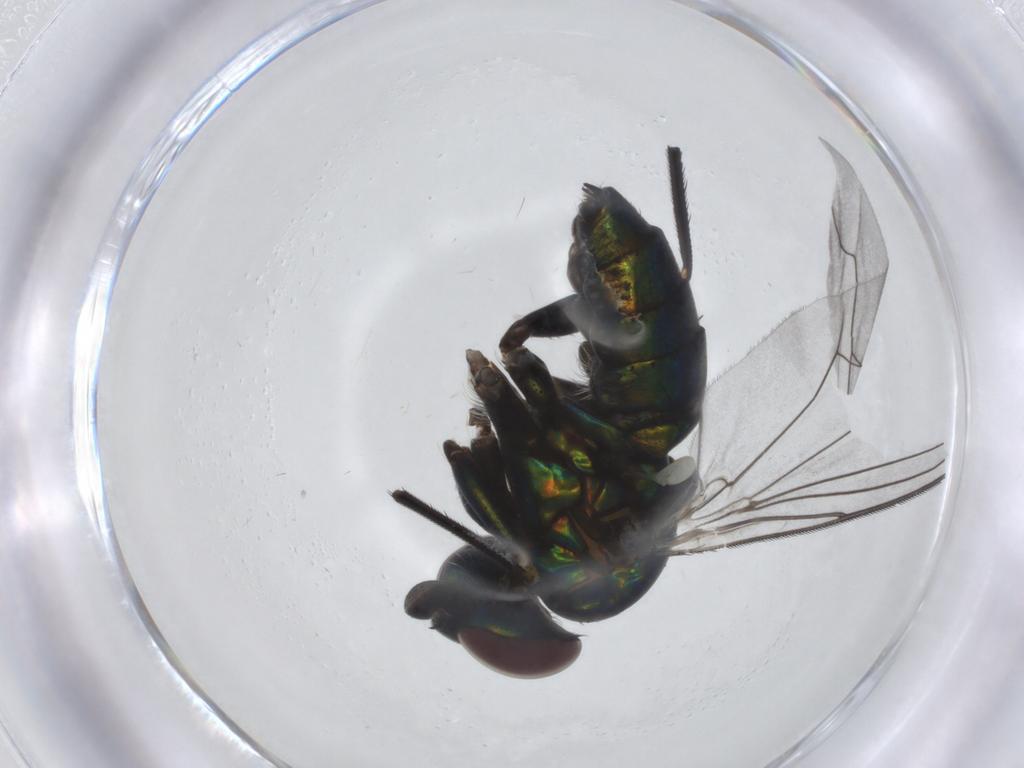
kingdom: Animalia
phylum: Arthropoda
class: Insecta
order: Diptera
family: Dolichopodidae
